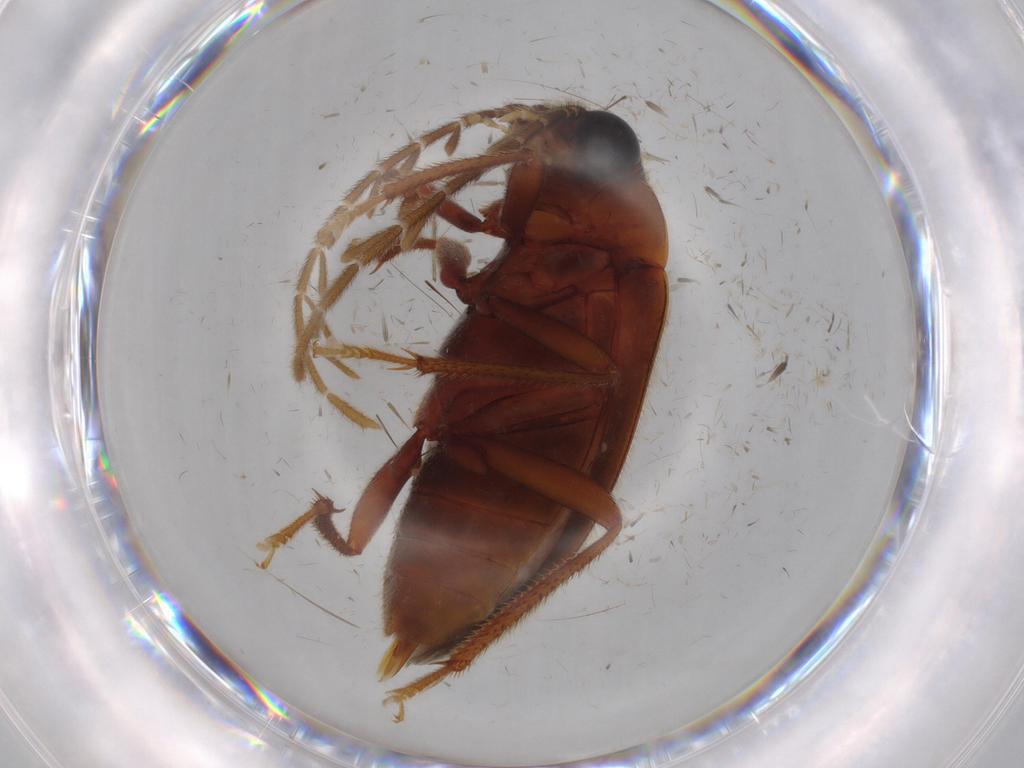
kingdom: Animalia
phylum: Arthropoda
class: Insecta
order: Coleoptera
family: Ptilodactylidae
